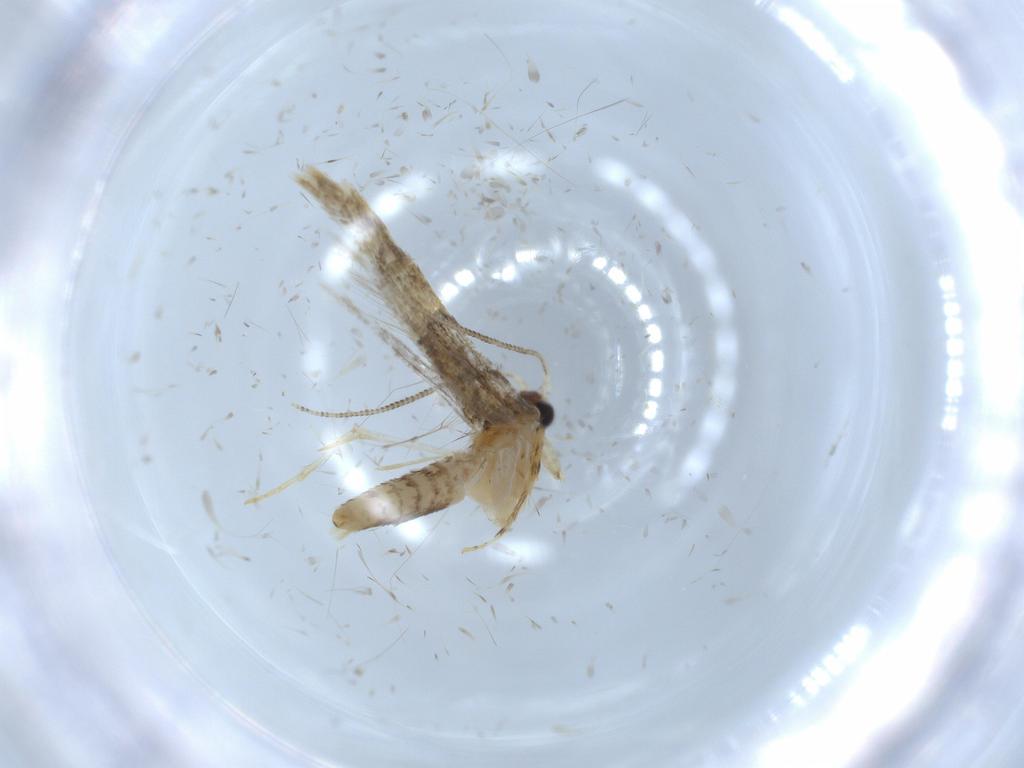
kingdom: Animalia
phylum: Arthropoda
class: Insecta
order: Lepidoptera
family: Tineidae
